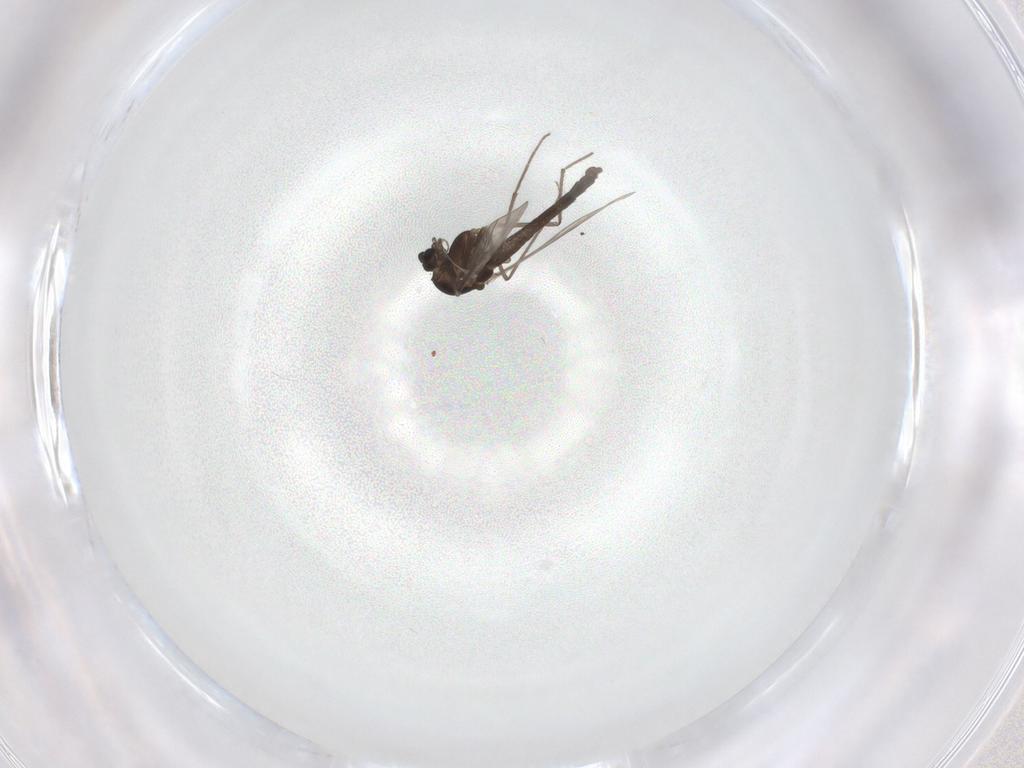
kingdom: Animalia
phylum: Arthropoda
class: Insecta
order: Diptera
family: Chironomidae
